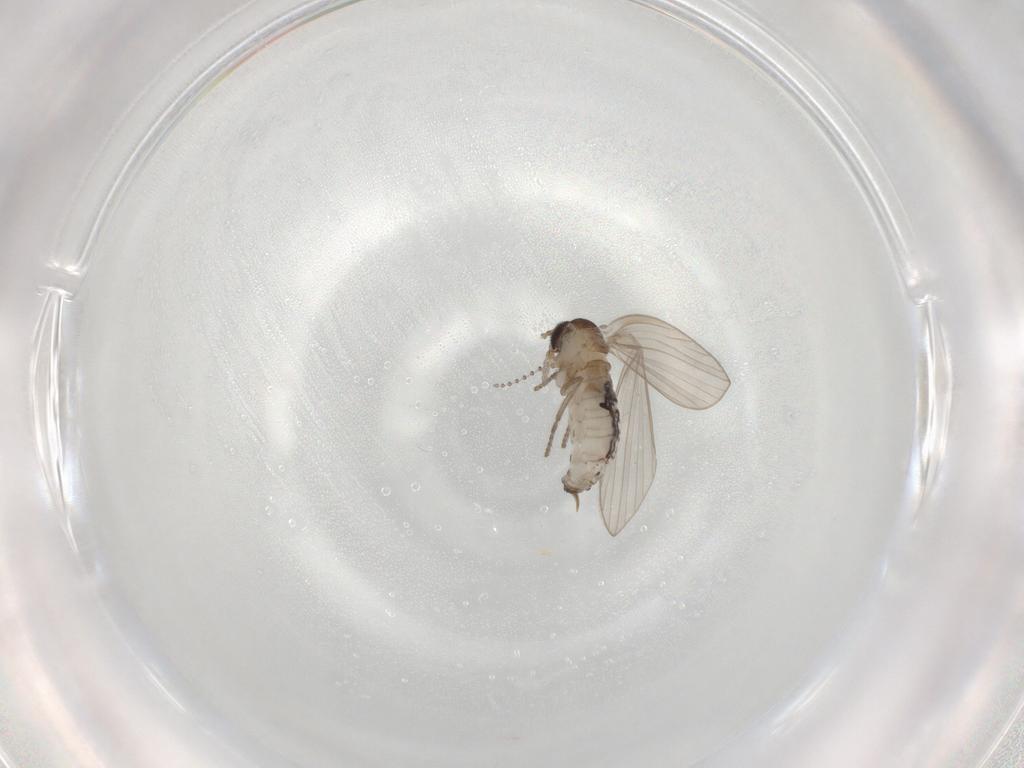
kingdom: Animalia
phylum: Arthropoda
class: Insecta
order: Diptera
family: Psychodidae
